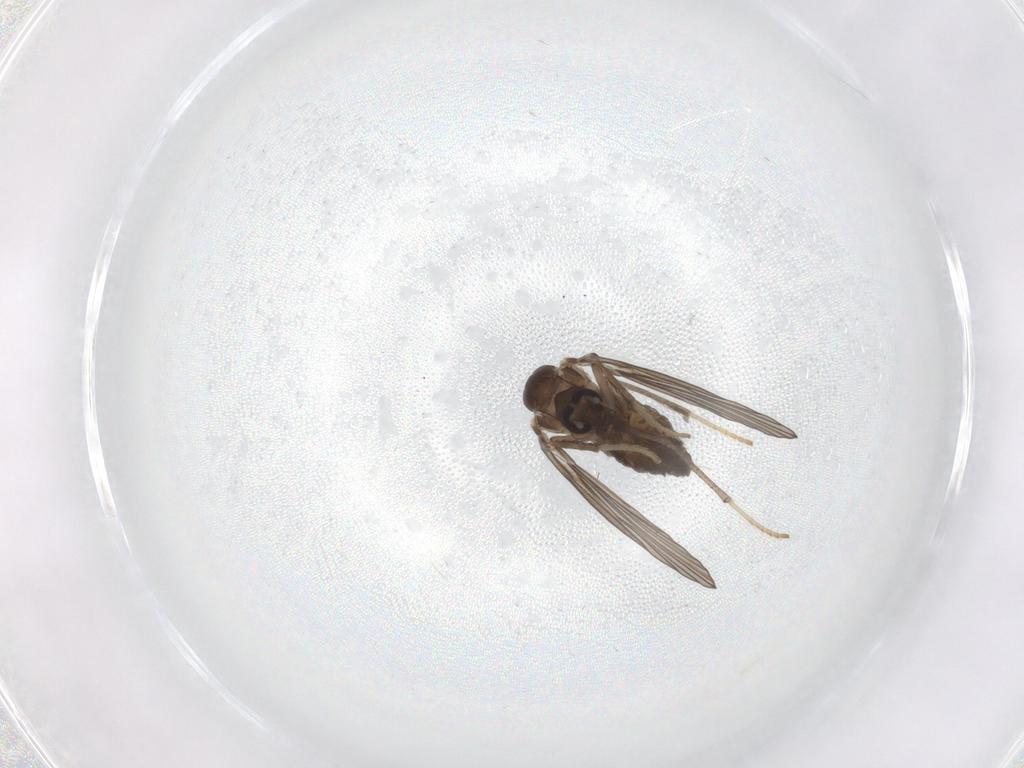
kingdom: Animalia
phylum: Arthropoda
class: Insecta
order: Diptera
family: Psychodidae
